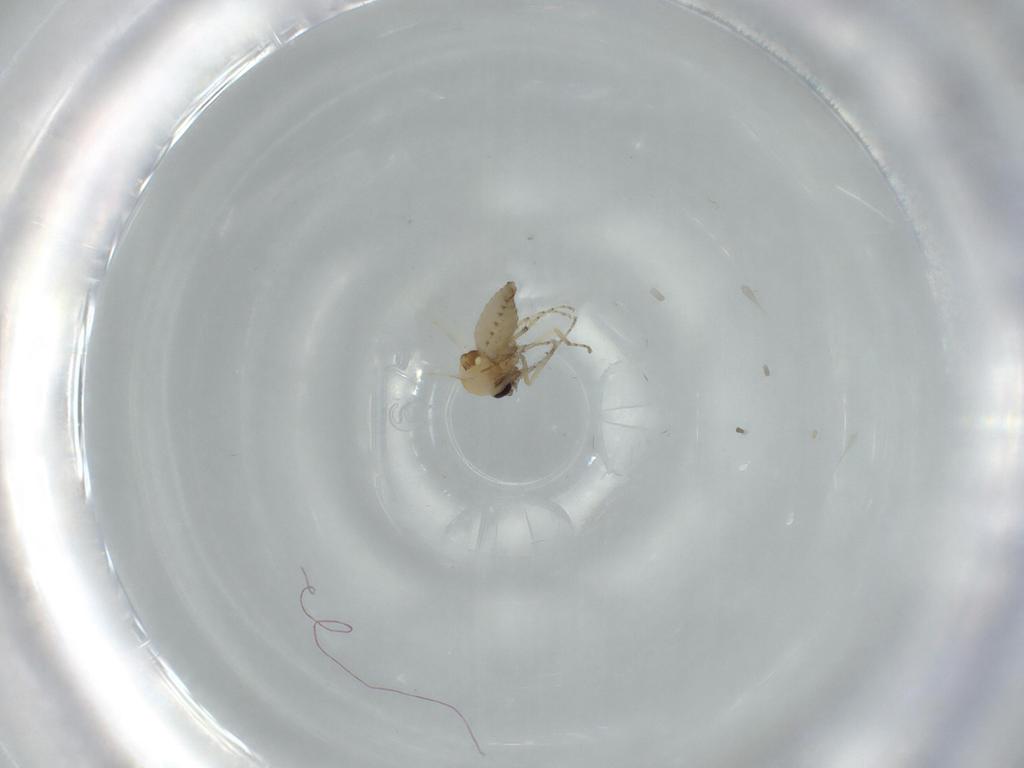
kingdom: Animalia
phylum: Arthropoda
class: Insecta
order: Diptera
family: Ceratopogonidae
